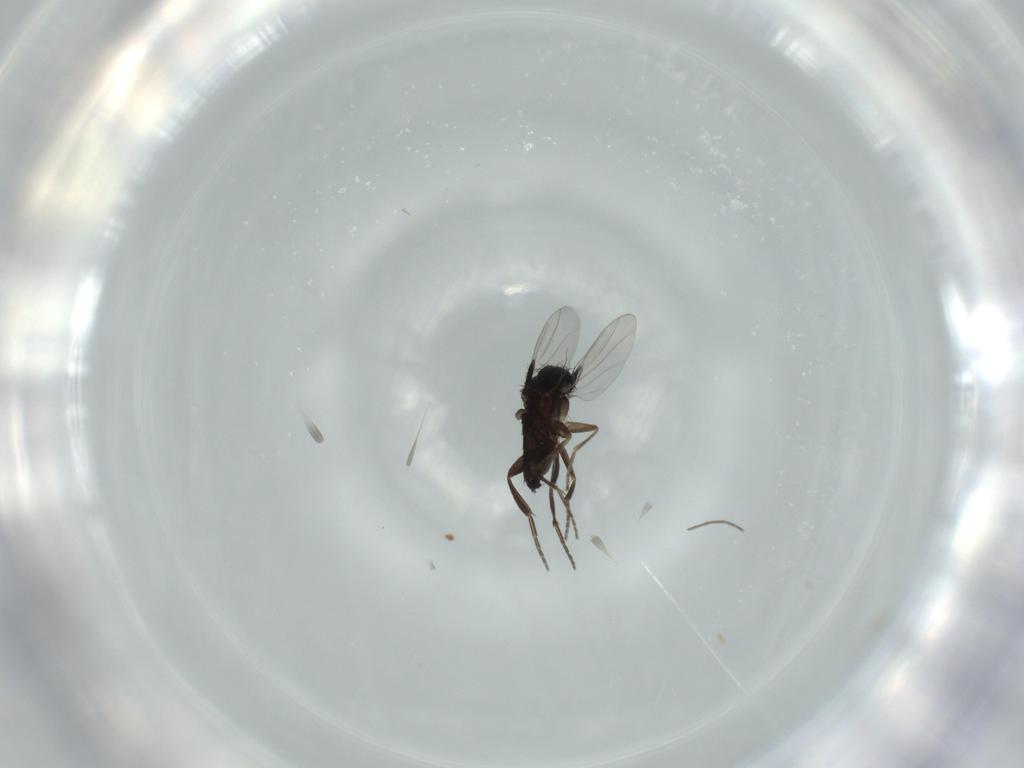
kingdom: Animalia
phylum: Arthropoda
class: Insecta
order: Diptera
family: Phoridae
